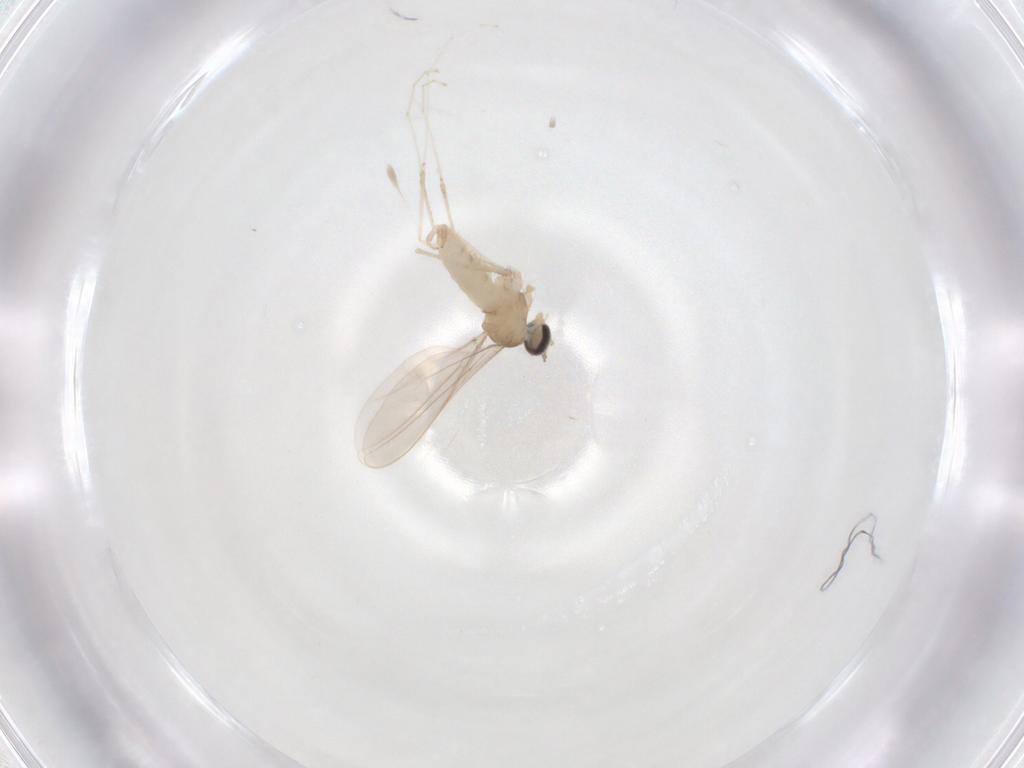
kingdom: Animalia
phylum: Arthropoda
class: Insecta
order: Diptera
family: Cecidomyiidae
